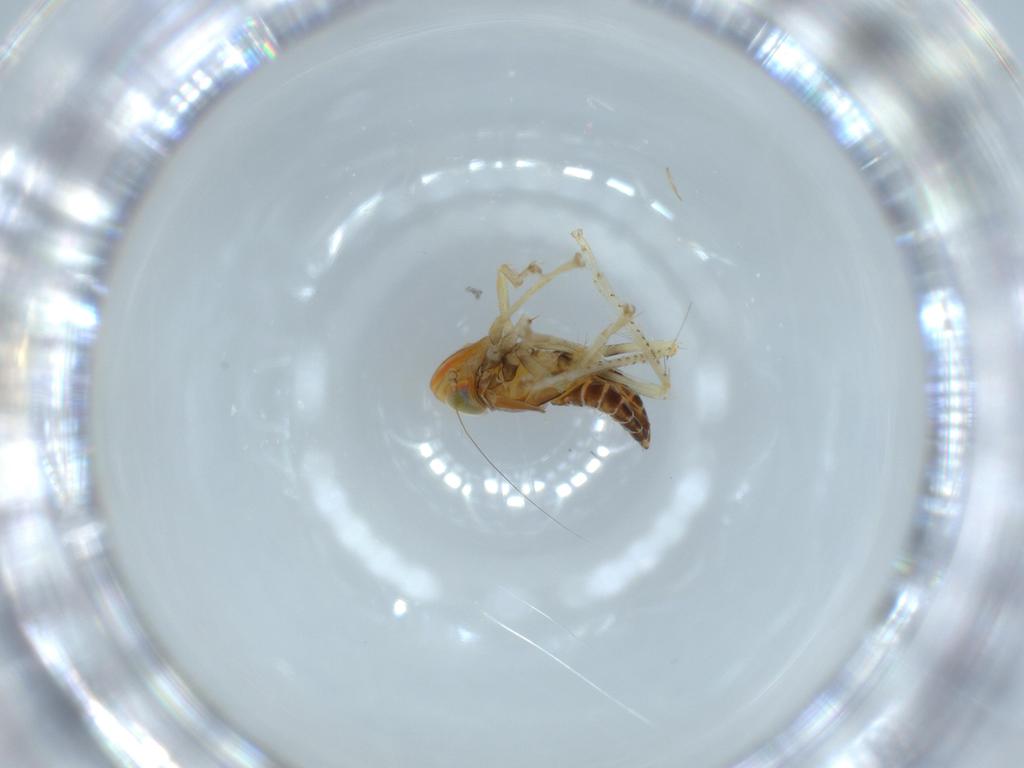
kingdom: Animalia
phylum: Arthropoda
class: Insecta
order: Hemiptera
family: Cicadellidae
